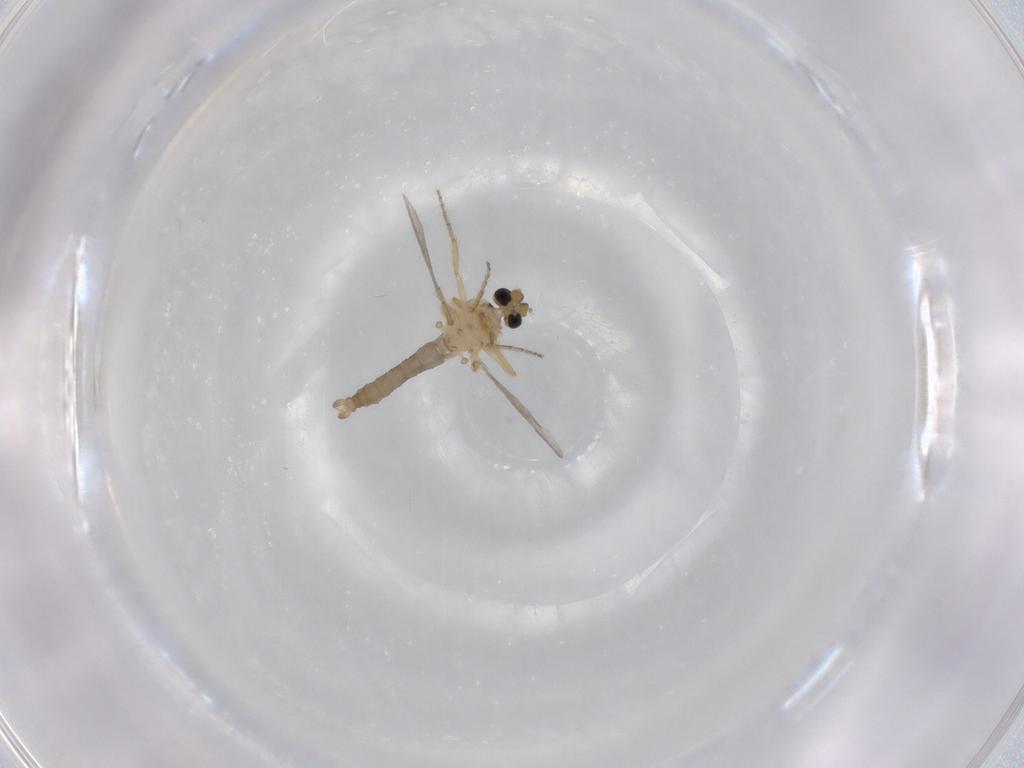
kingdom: Animalia
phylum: Arthropoda
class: Insecta
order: Diptera
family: Ceratopogonidae
